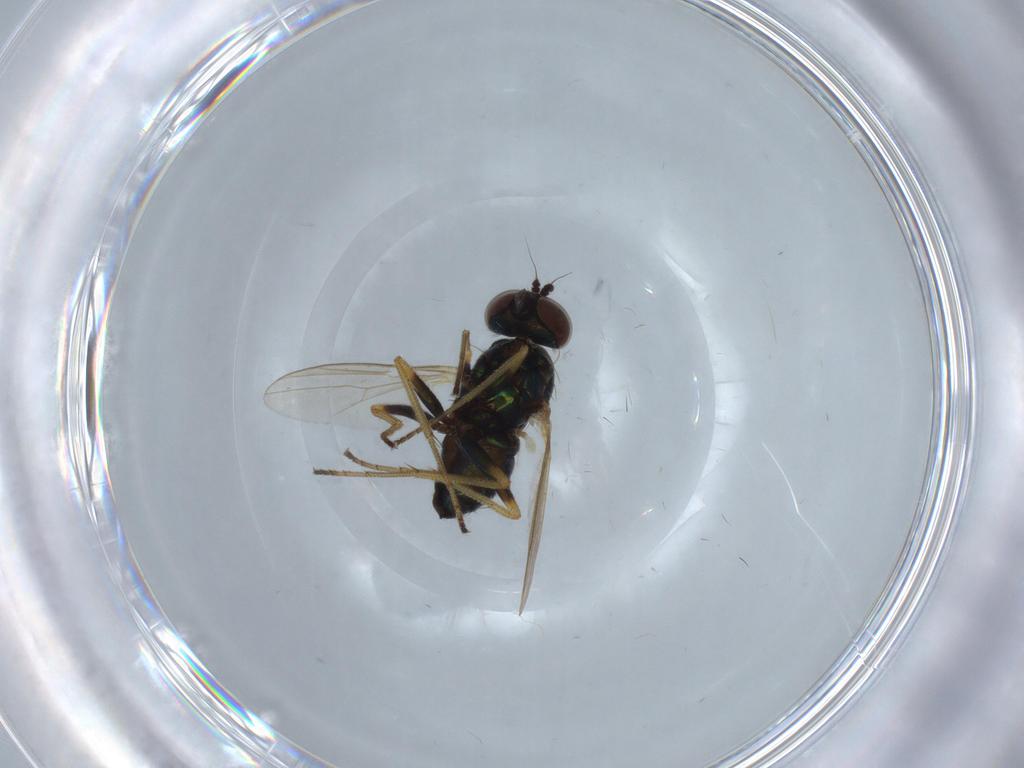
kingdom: Animalia
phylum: Arthropoda
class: Insecta
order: Diptera
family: Dolichopodidae
